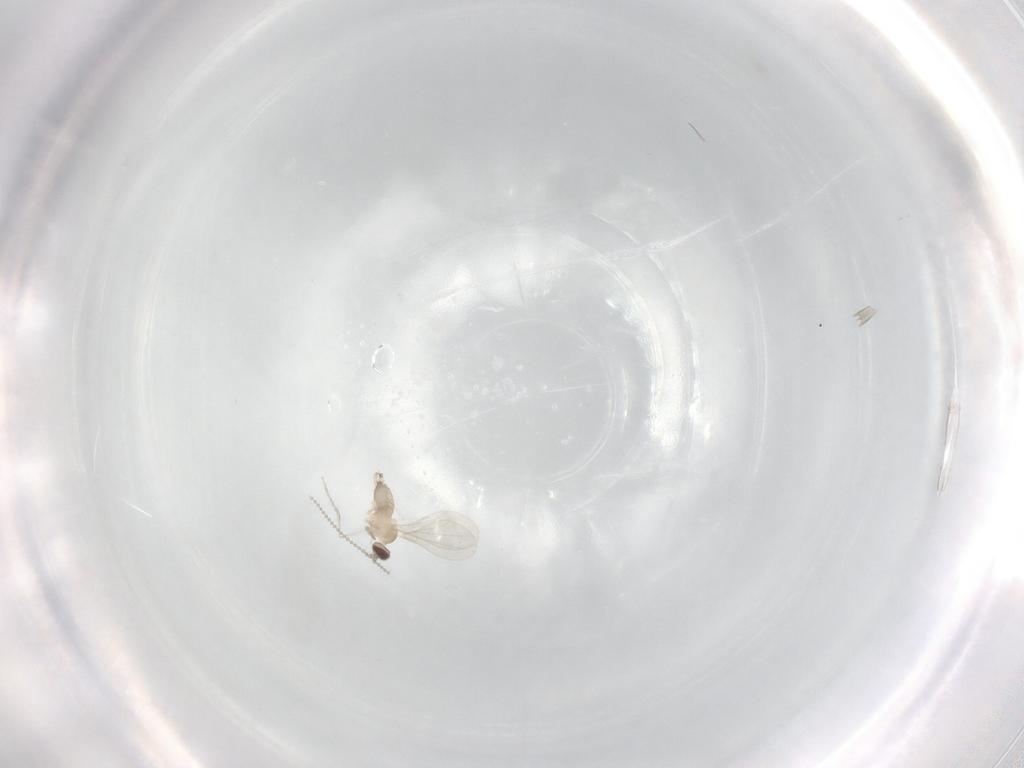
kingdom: Animalia
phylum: Arthropoda
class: Insecta
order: Diptera
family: Cecidomyiidae
